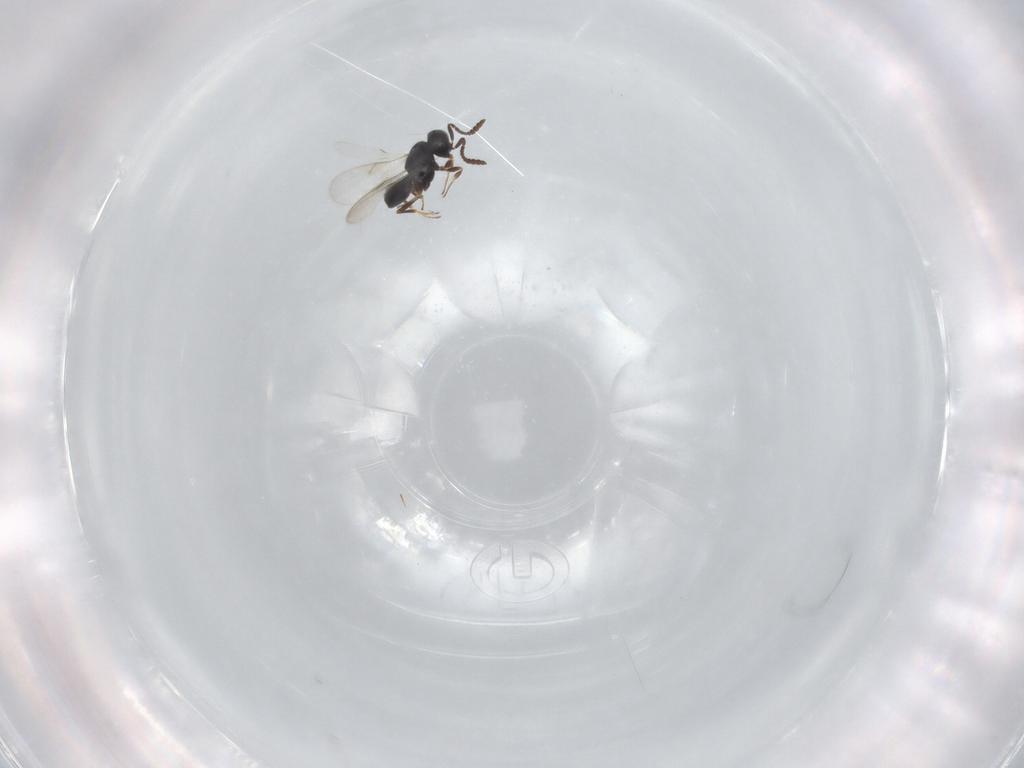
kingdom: Animalia
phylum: Arthropoda
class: Insecta
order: Hymenoptera
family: Scelionidae
